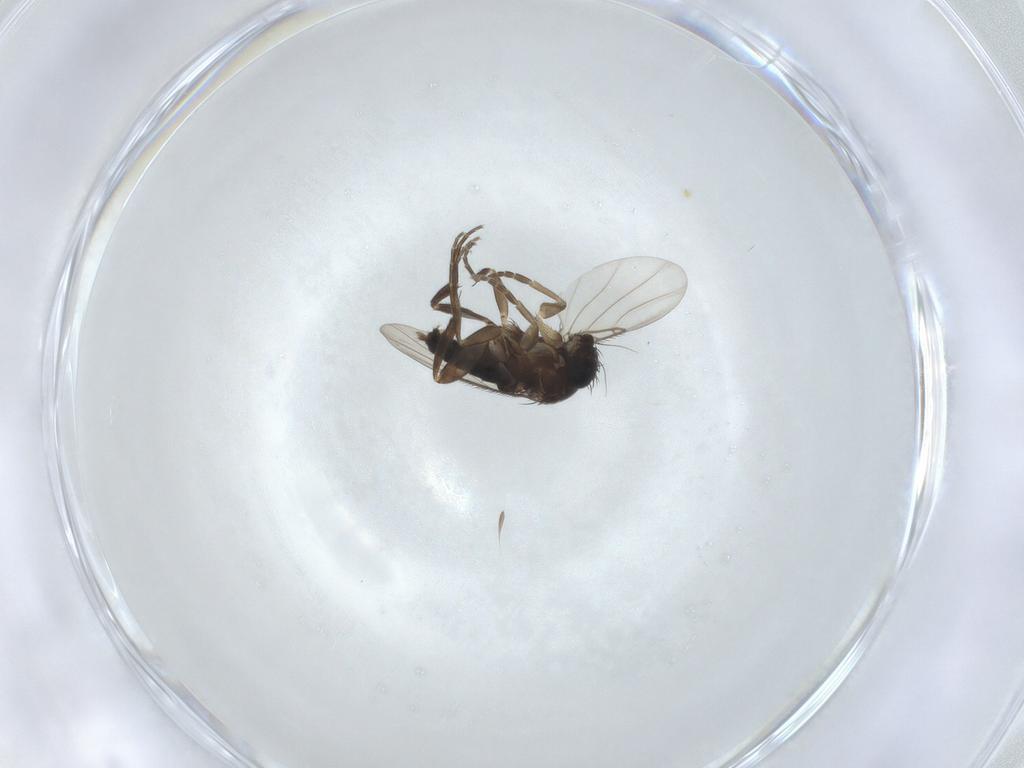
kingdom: Animalia
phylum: Arthropoda
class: Insecta
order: Diptera
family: Phoridae
